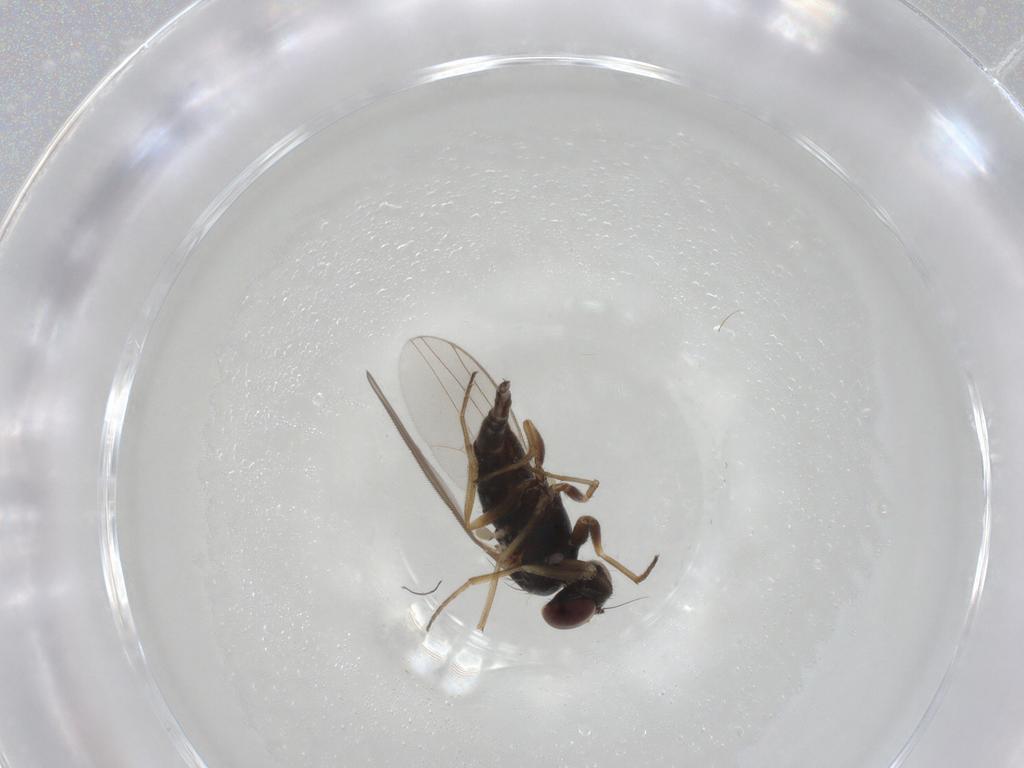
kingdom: Animalia
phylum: Arthropoda
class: Insecta
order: Diptera
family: Dolichopodidae
